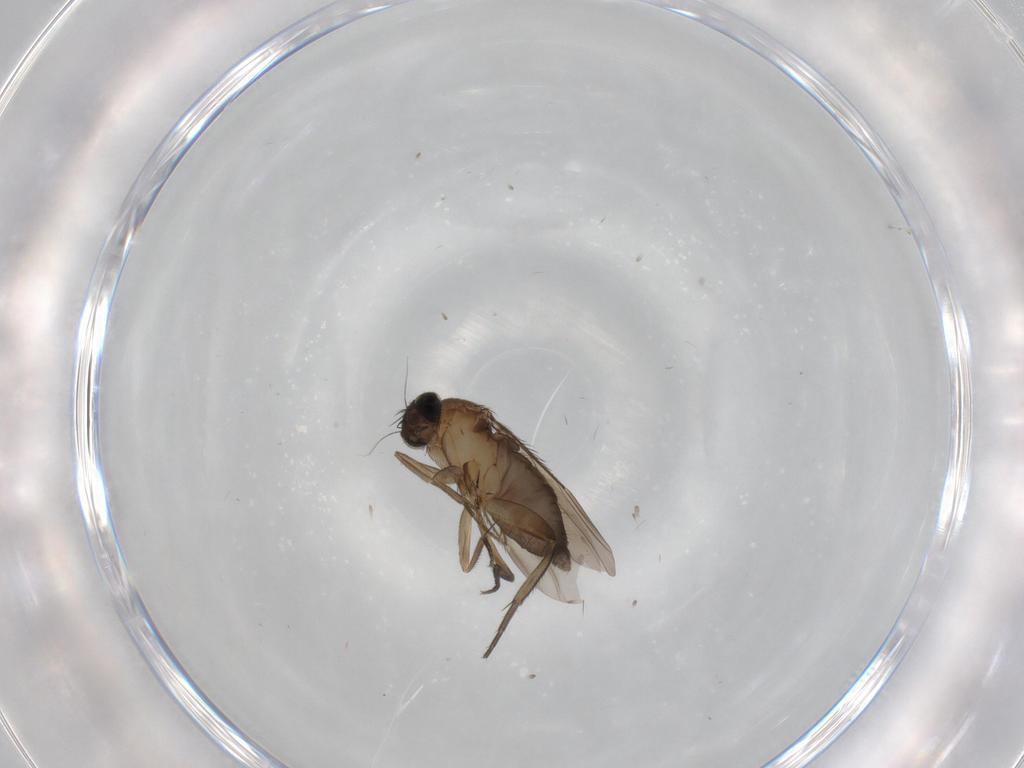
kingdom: Animalia
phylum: Arthropoda
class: Insecta
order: Diptera
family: Phoridae
